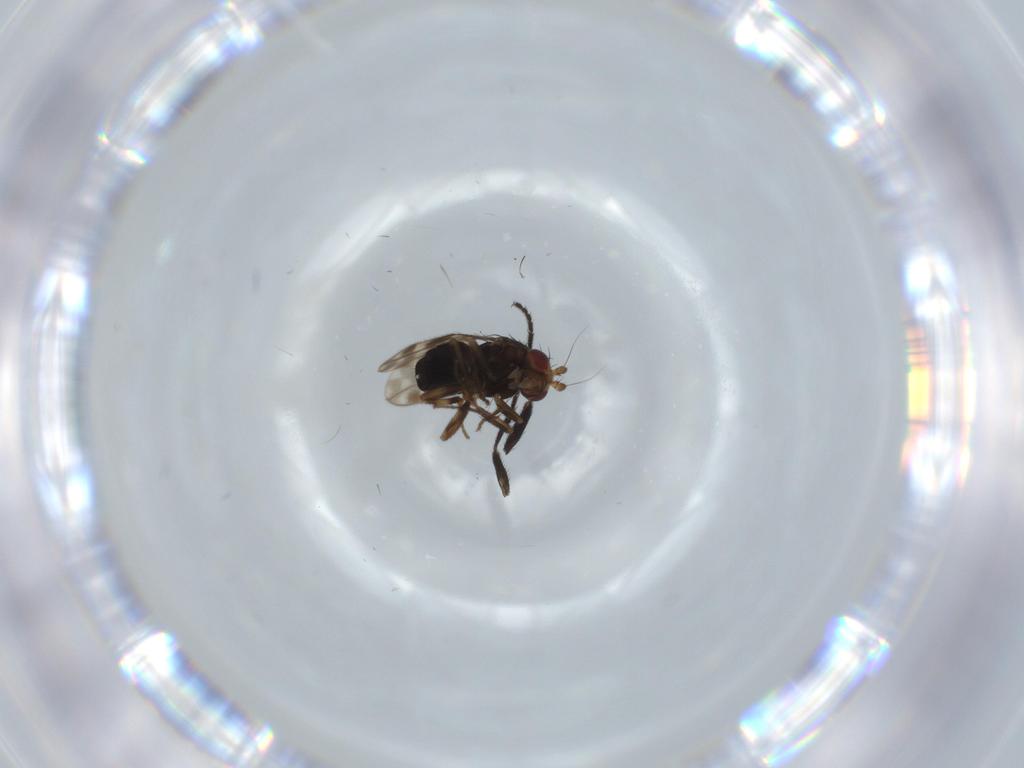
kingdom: Animalia
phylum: Arthropoda
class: Insecta
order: Diptera
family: Sphaeroceridae
